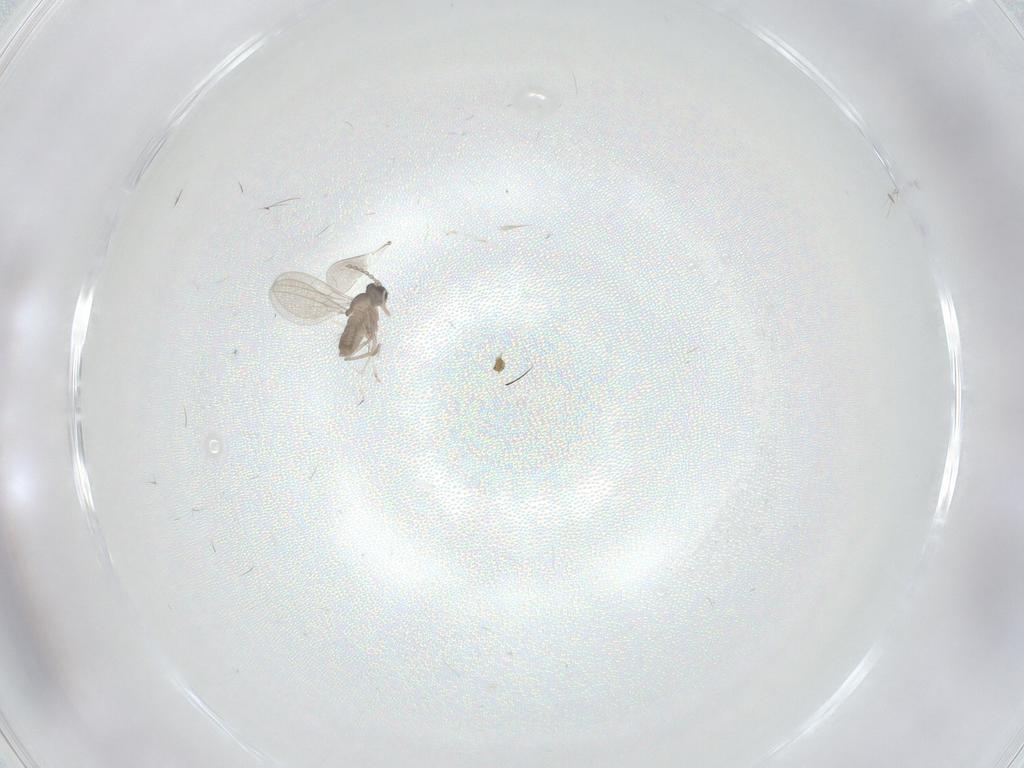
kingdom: Animalia
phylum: Arthropoda
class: Insecta
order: Diptera
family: Cecidomyiidae
